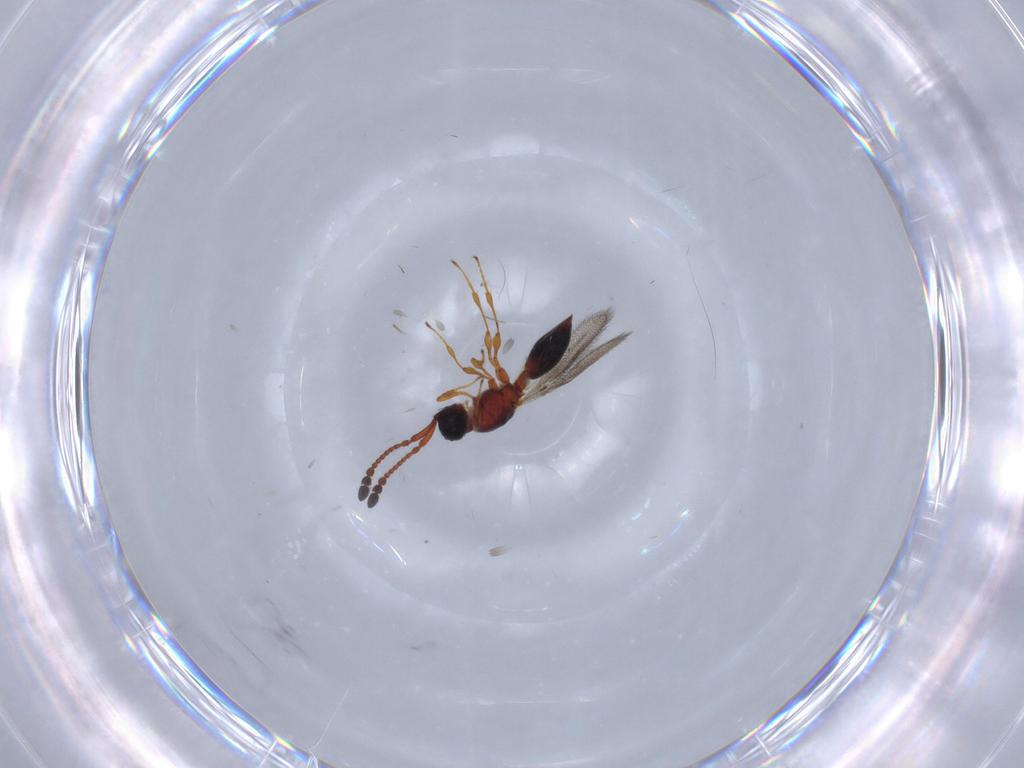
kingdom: Animalia
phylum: Arthropoda
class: Insecta
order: Hymenoptera
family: Diapriidae
